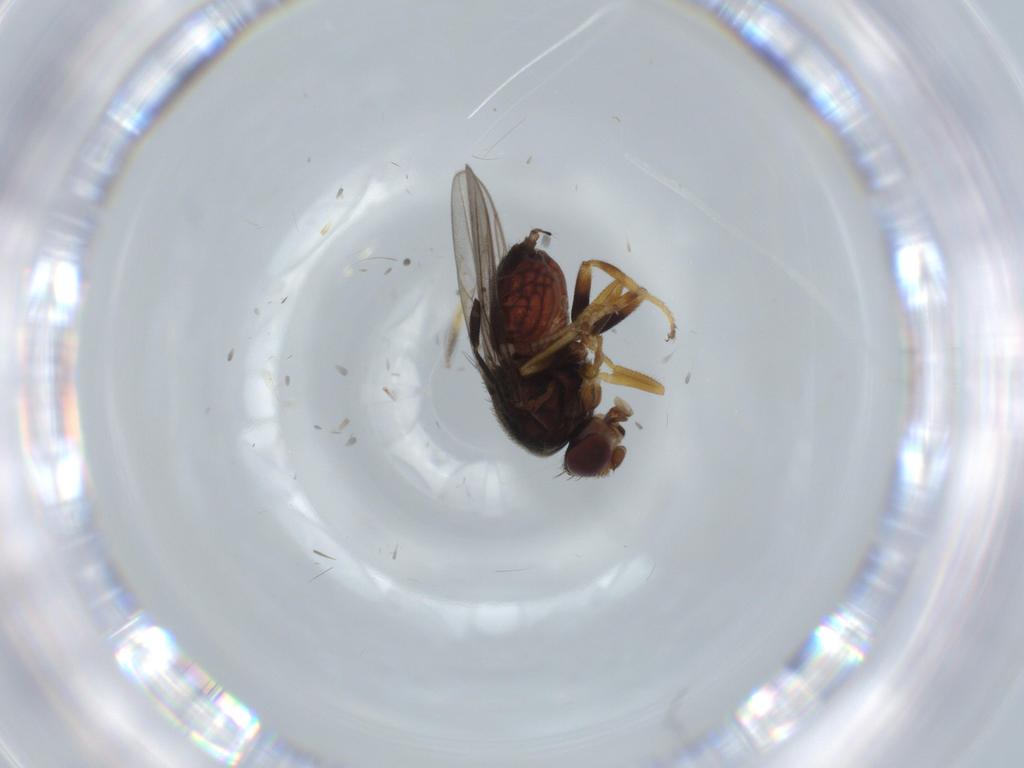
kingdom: Animalia
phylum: Arthropoda
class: Insecta
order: Diptera
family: Chloropidae
